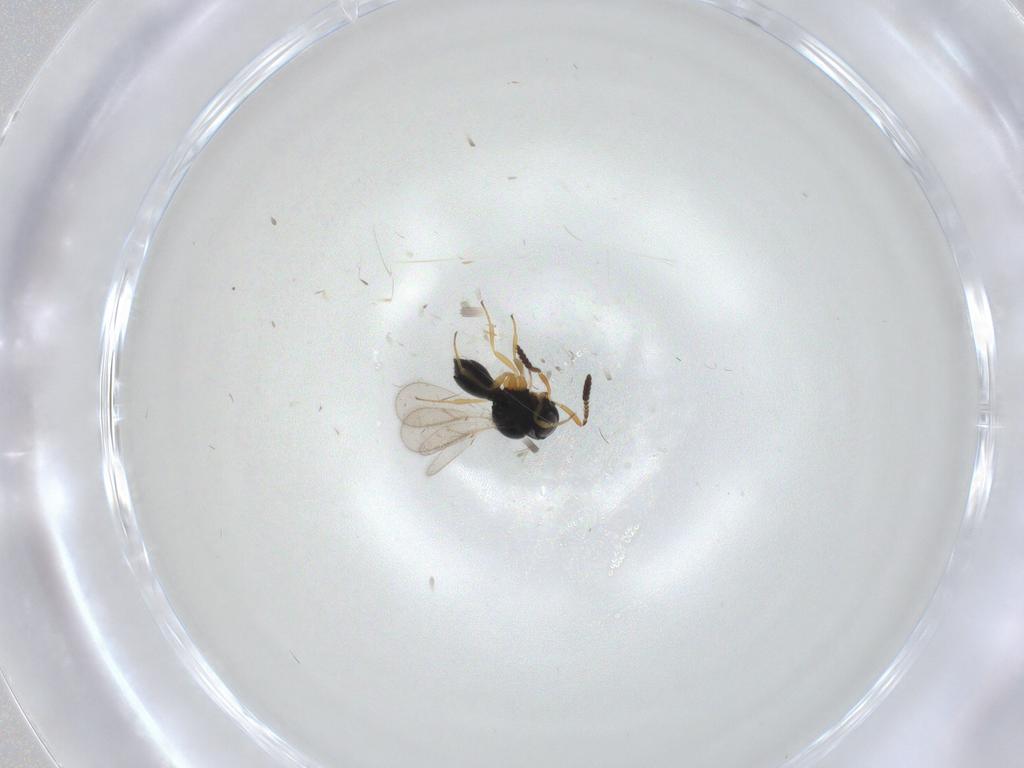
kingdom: Animalia
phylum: Arthropoda
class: Insecta
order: Hymenoptera
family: Scelionidae
